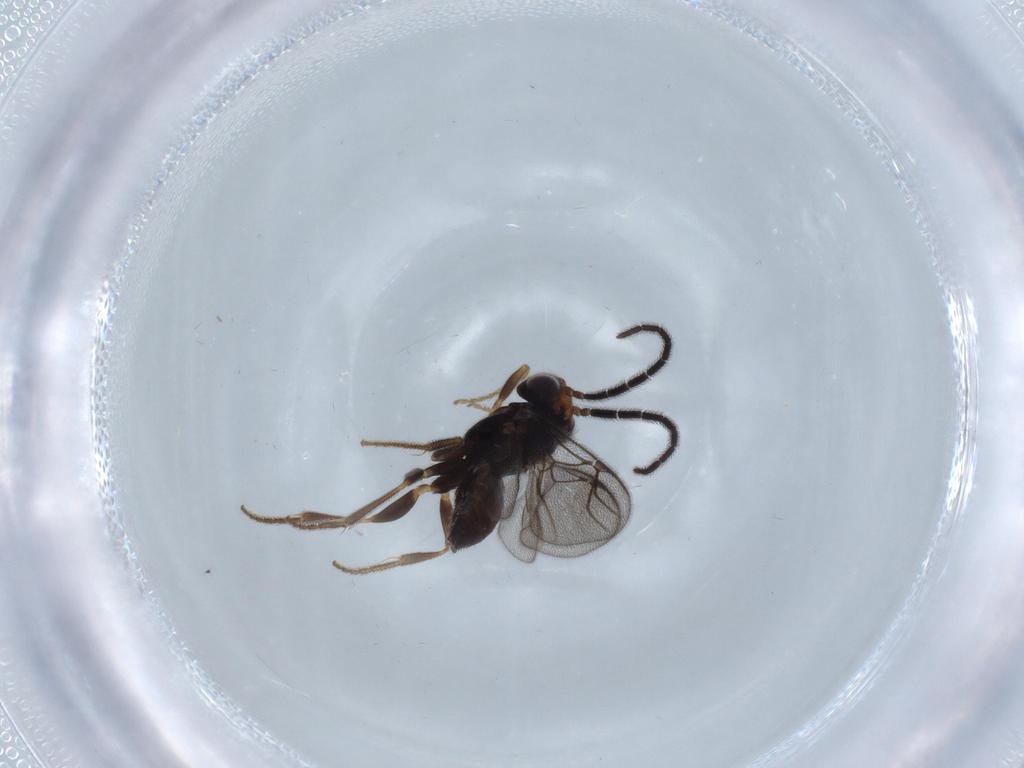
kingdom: Animalia
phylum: Arthropoda
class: Insecta
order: Hymenoptera
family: Dryinidae
